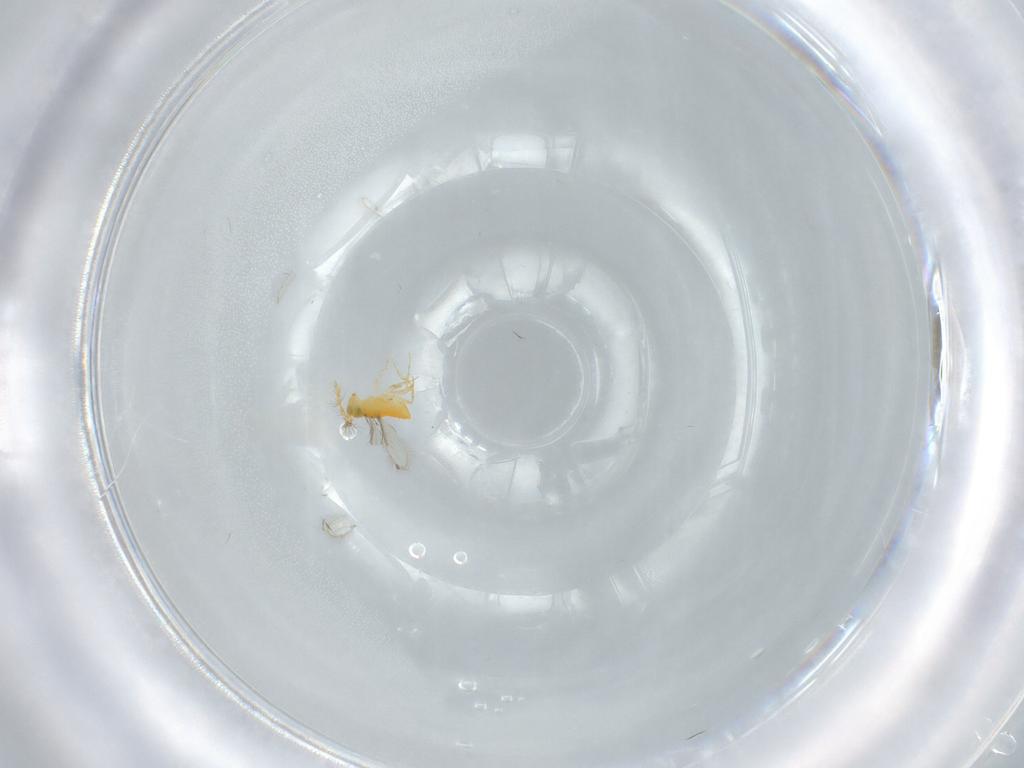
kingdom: Animalia
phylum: Arthropoda
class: Insecta
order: Hymenoptera
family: Platygastridae
